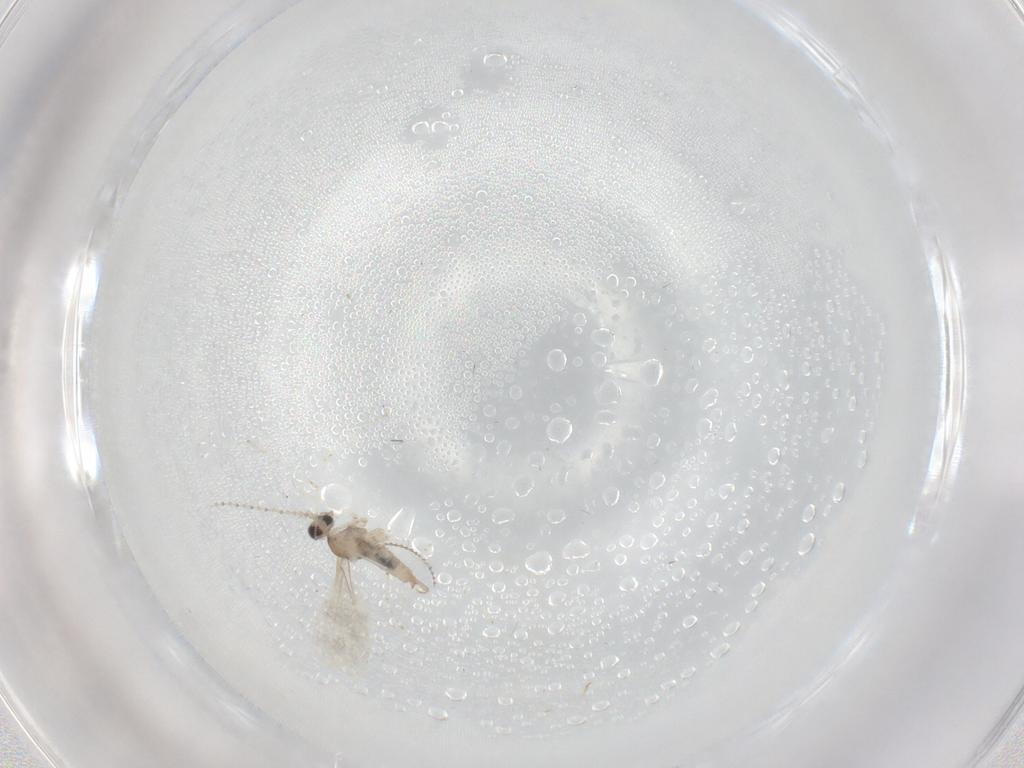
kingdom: Animalia
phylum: Arthropoda
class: Insecta
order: Diptera
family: Cecidomyiidae
